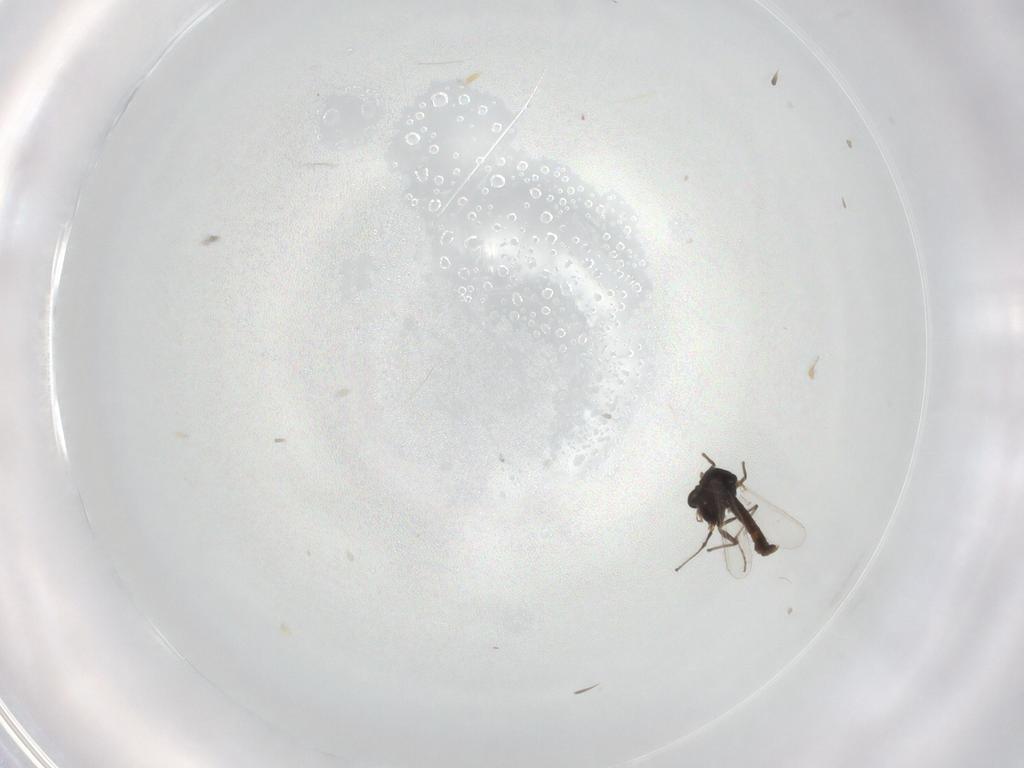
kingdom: Animalia
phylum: Arthropoda
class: Insecta
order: Diptera
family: Chironomidae
